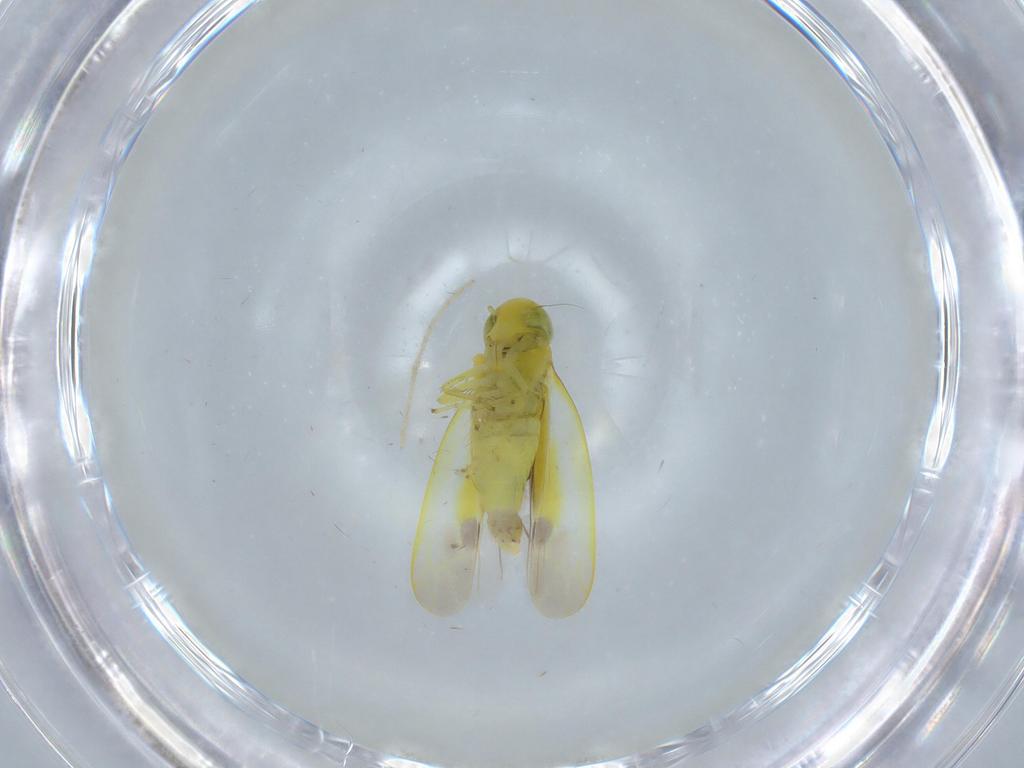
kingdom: Animalia
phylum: Arthropoda
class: Insecta
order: Hemiptera
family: Cicadellidae
